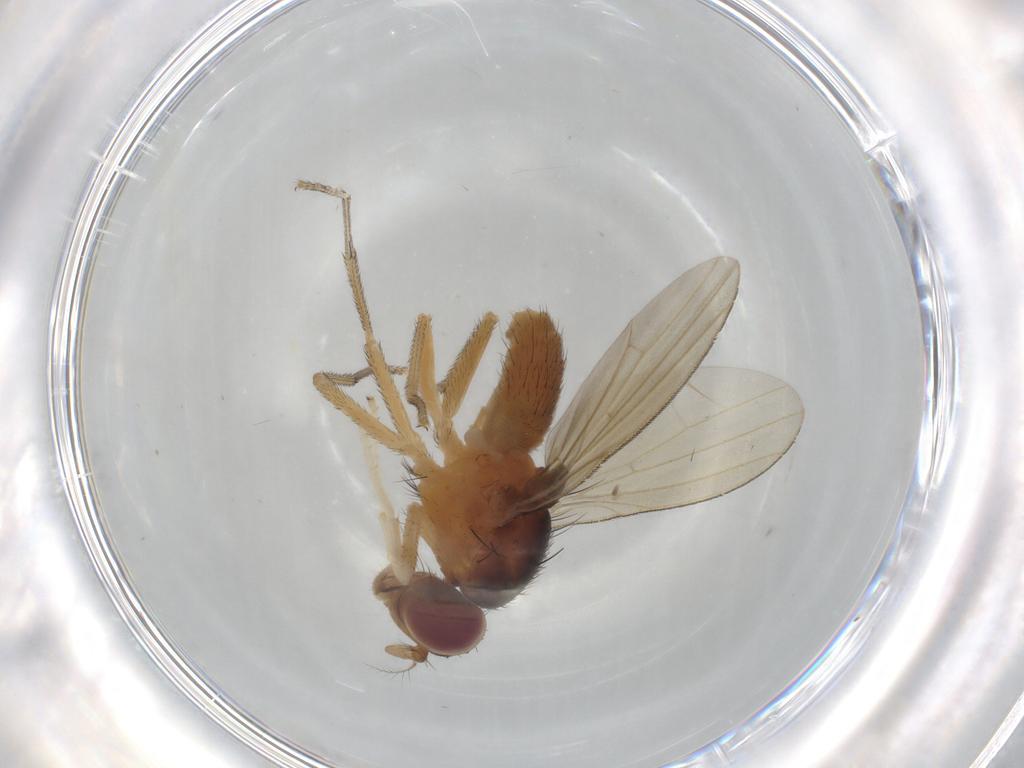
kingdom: Animalia
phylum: Arthropoda
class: Insecta
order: Diptera
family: Lauxaniidae
